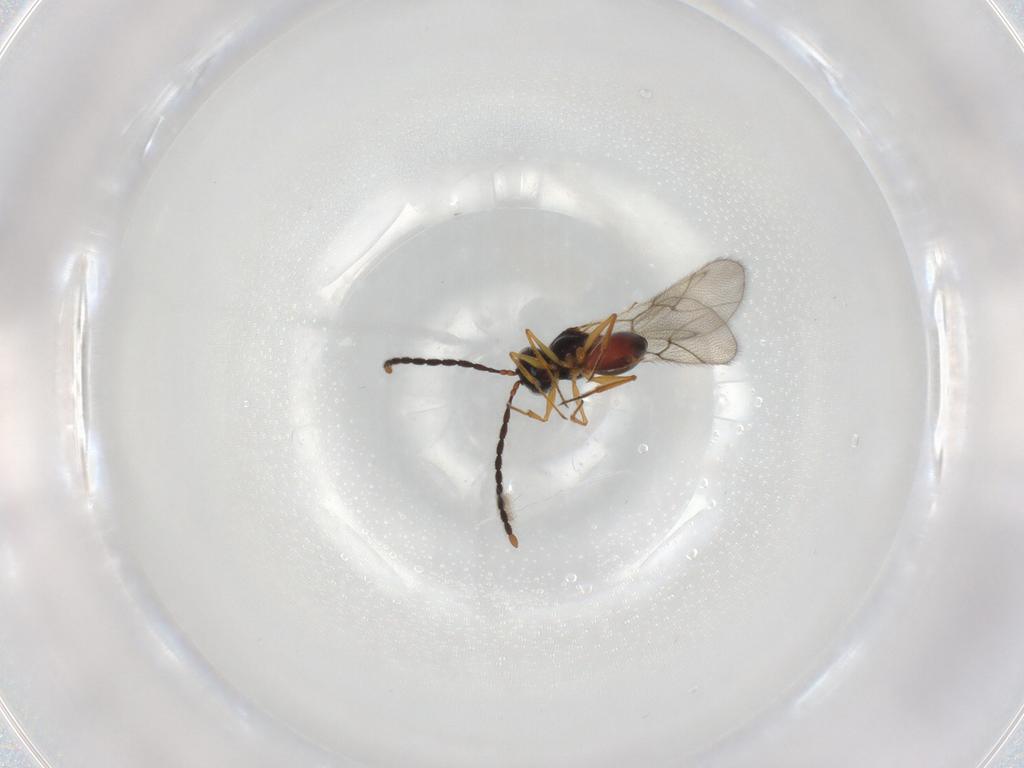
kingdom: Animalia
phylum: Arthropoda
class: Insecta
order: Hymenoptera
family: Figitidae
